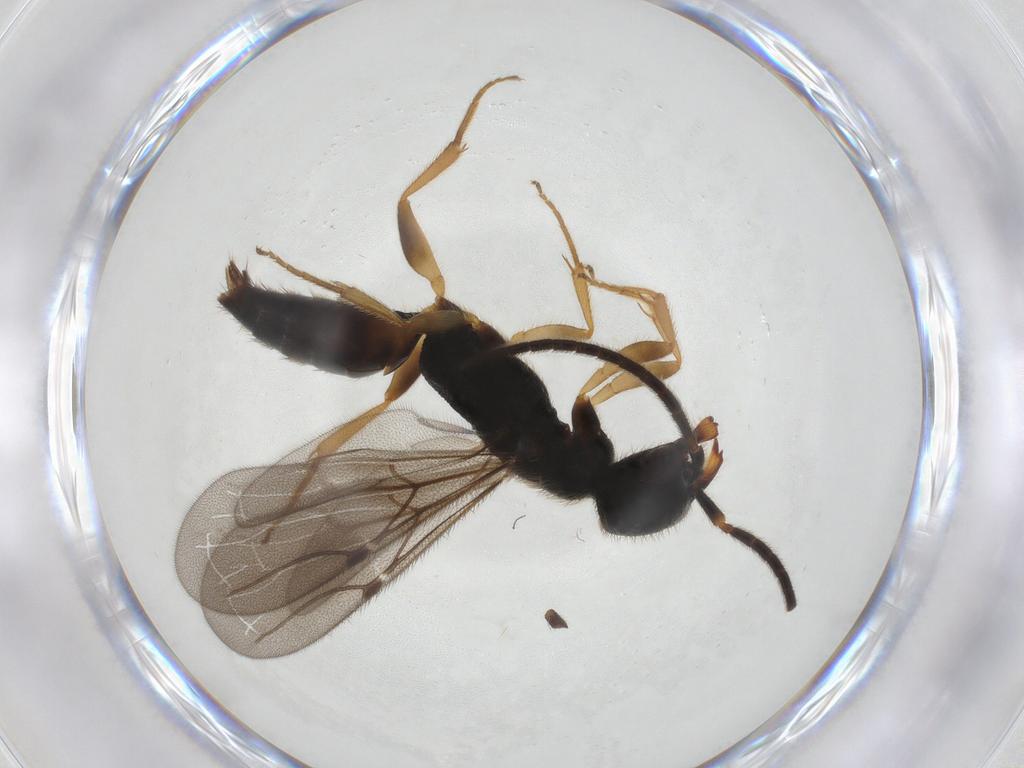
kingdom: Animalia
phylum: Arthropoda
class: Insecta
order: Hymenoptera
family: Bethylidae
